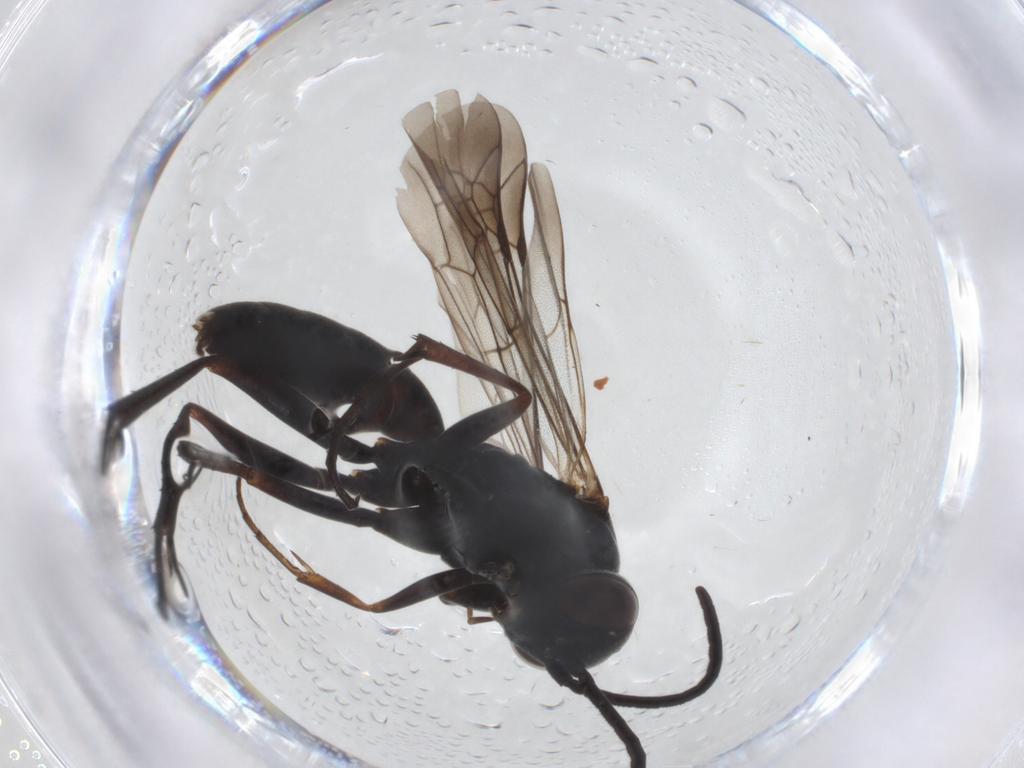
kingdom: Animalia
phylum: Arthropoda
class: Insecta
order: Hymenoptera
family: Pompilidae
